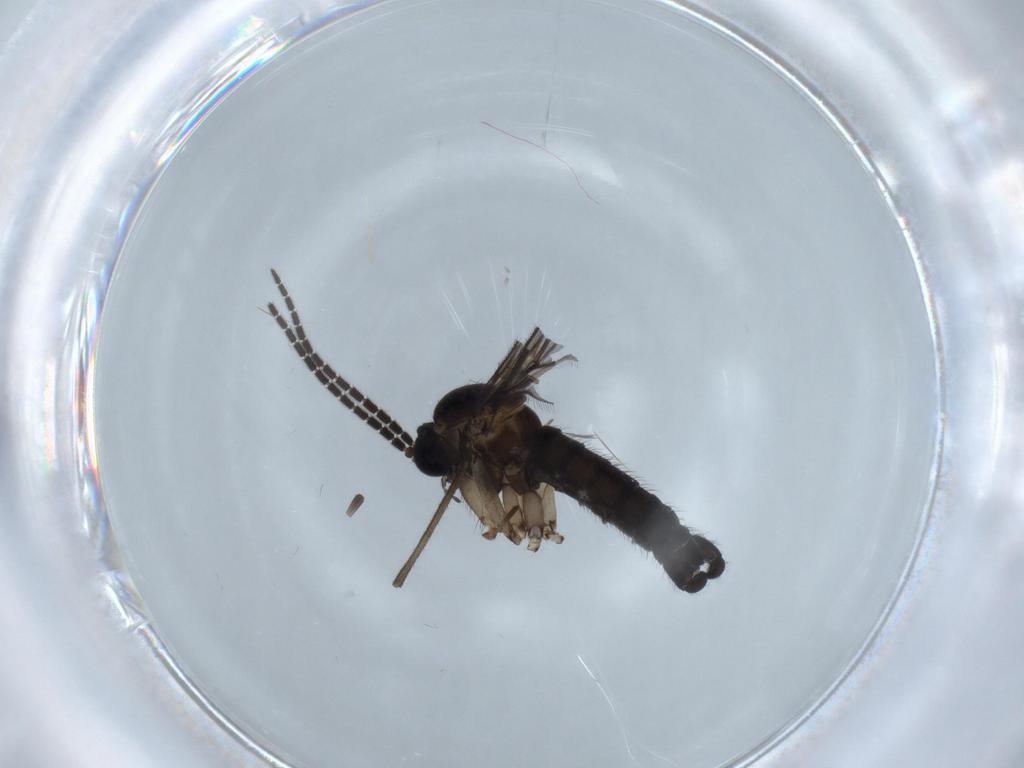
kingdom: Animalia
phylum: Arthropoda
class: Insecta
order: Diptera
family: Sciaridae
